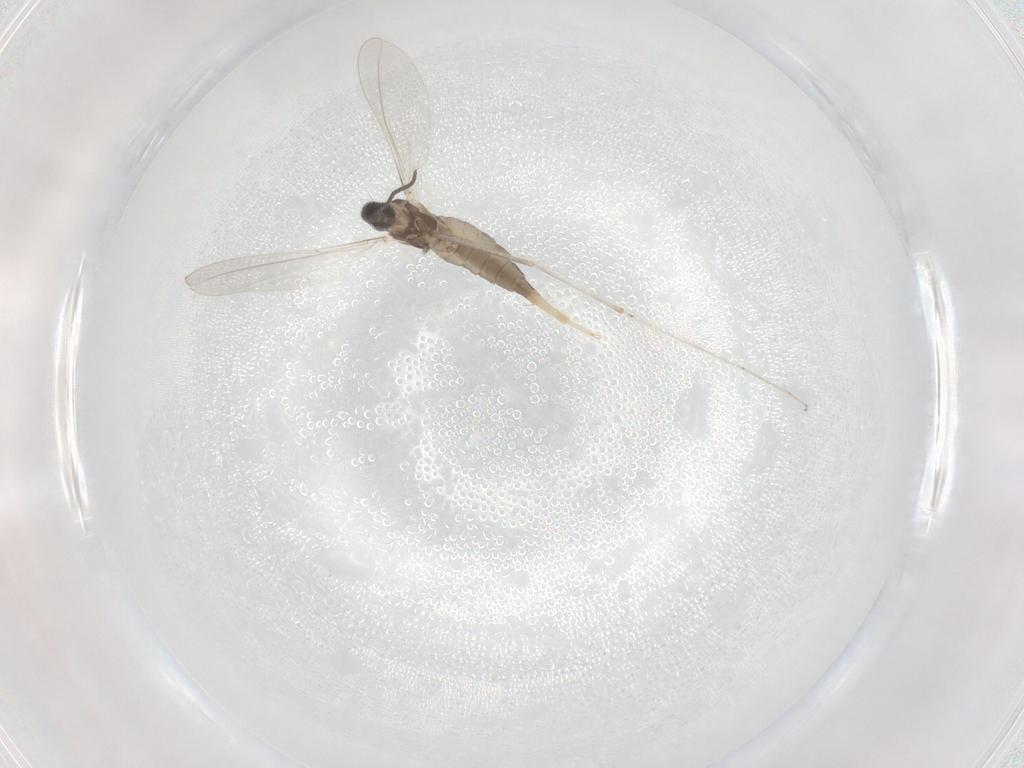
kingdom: Animalia
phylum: Arthropoda
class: Insecta
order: Diptera
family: Cecidomyiidae
